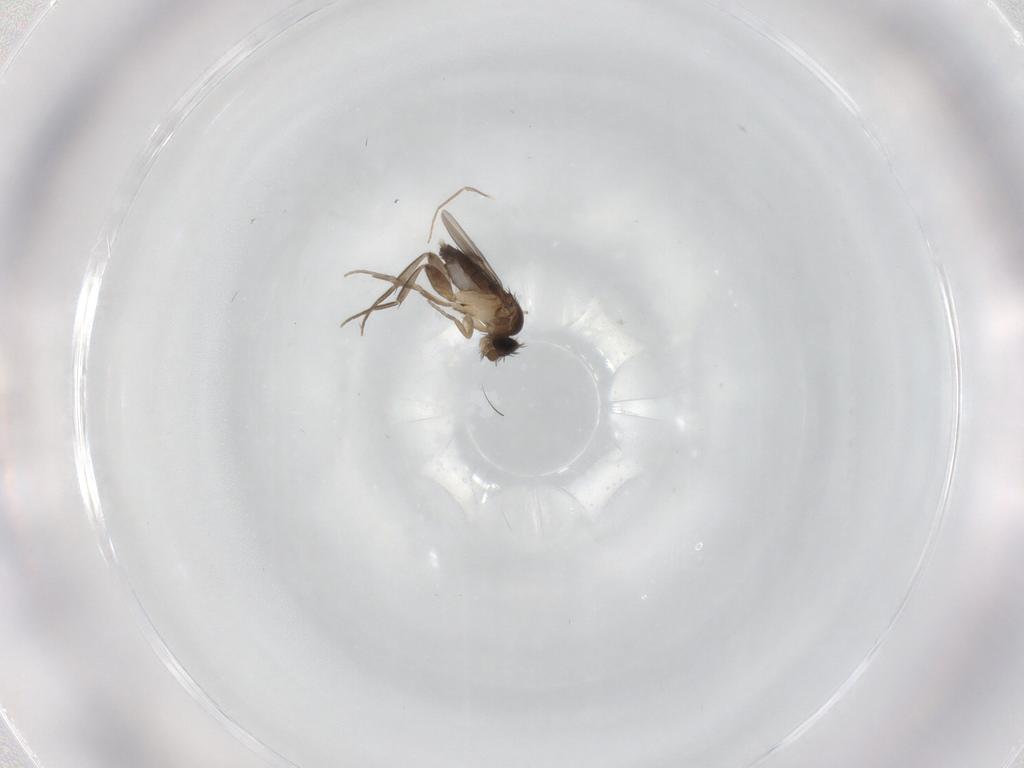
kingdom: Animalia
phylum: Arthropoda
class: Insecta
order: Diptera
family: Phoridae
